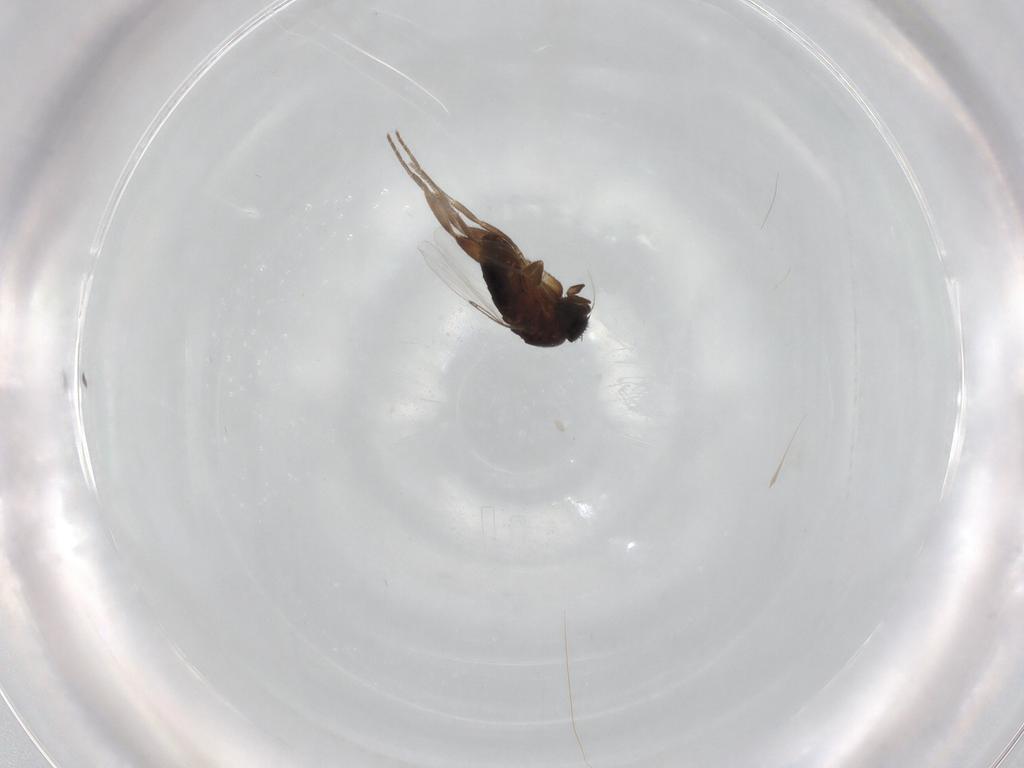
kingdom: Animalia
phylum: Arthropoda
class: Insecta
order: Diptera
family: Phoridae
